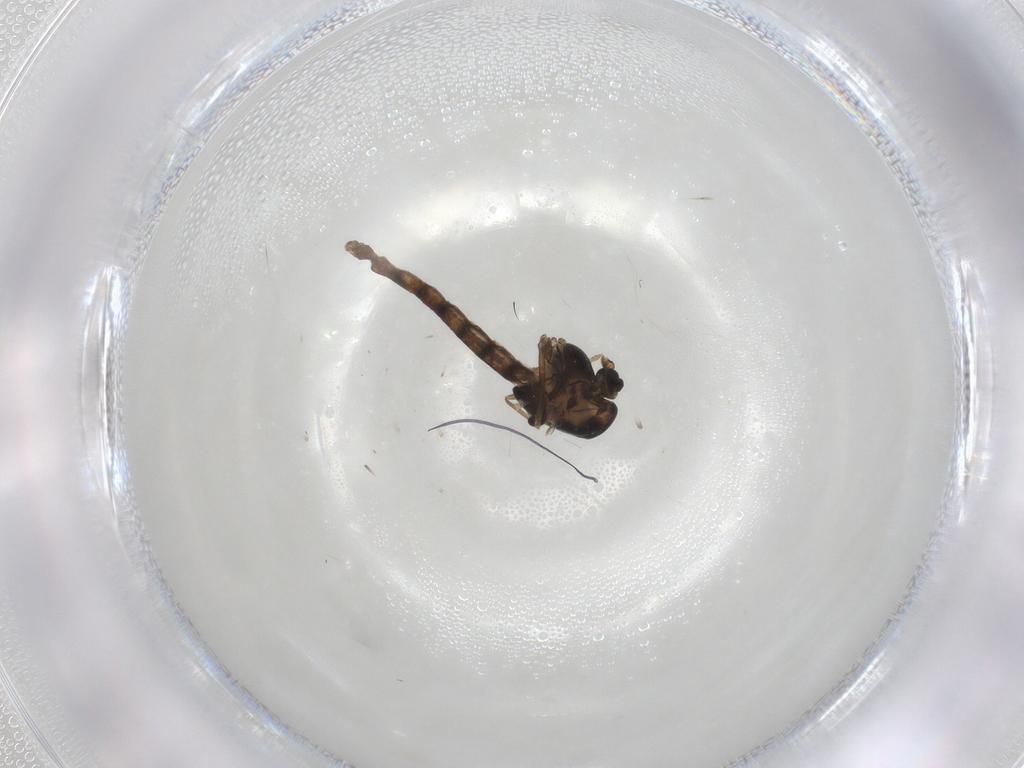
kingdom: Animalia
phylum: Arthropoda
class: Insecta
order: Diptera
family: Chironomidae
